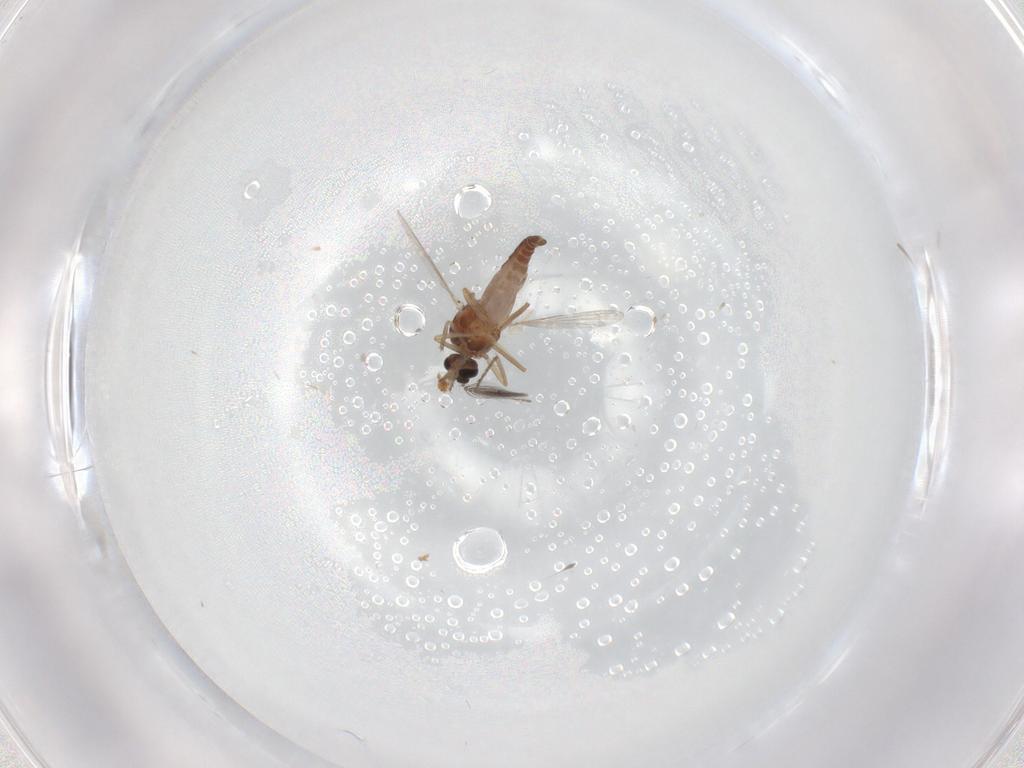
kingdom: Animalia
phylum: Arthropoda
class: Insecta
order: Diptera
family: Ceratopogonidae
